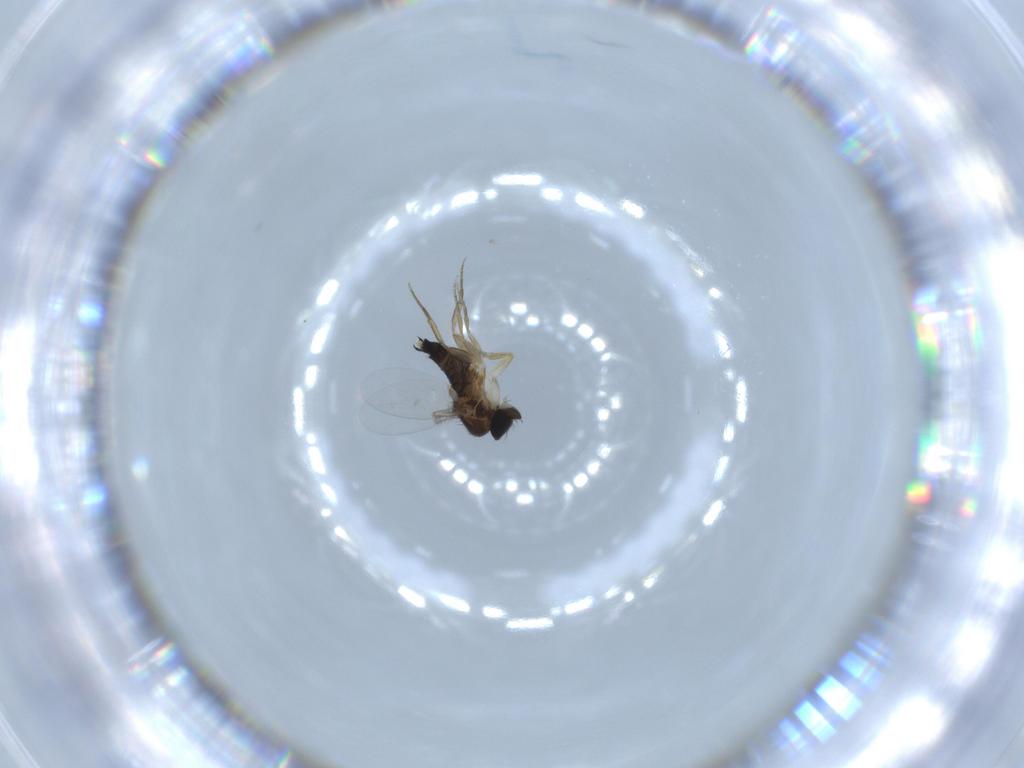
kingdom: Animalia
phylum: Arthropoda
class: Insecta
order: Diptera
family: Phoridae
